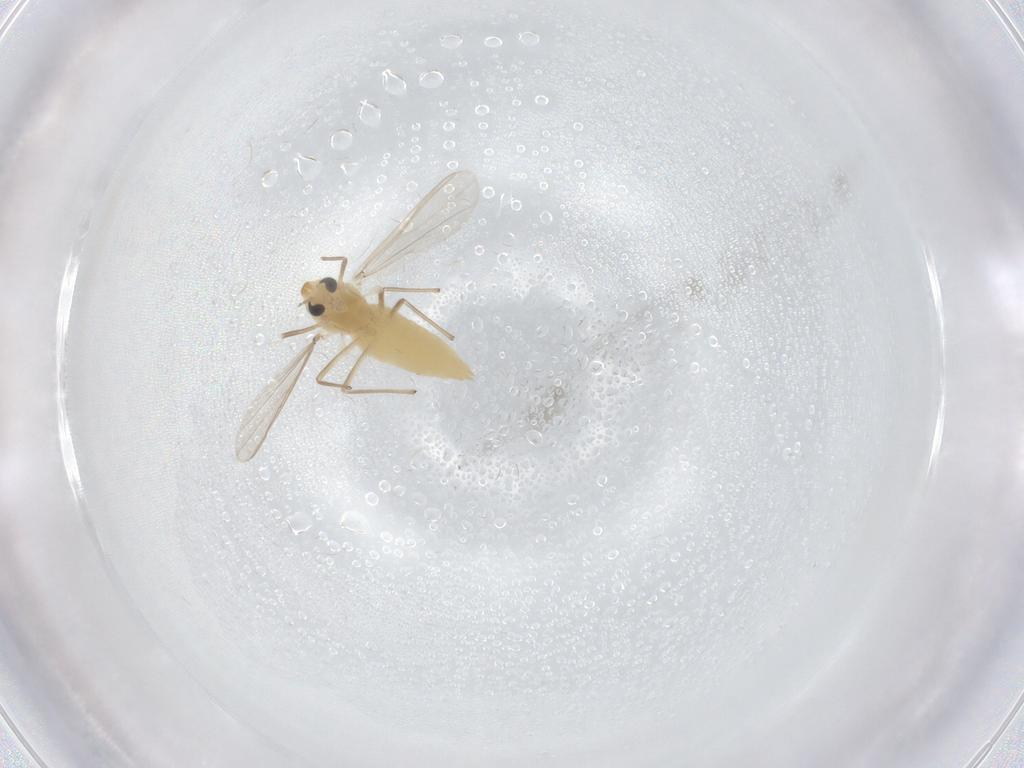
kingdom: Animalia
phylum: Arthropoda
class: Insecta
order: Diptera
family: Chironomidae
